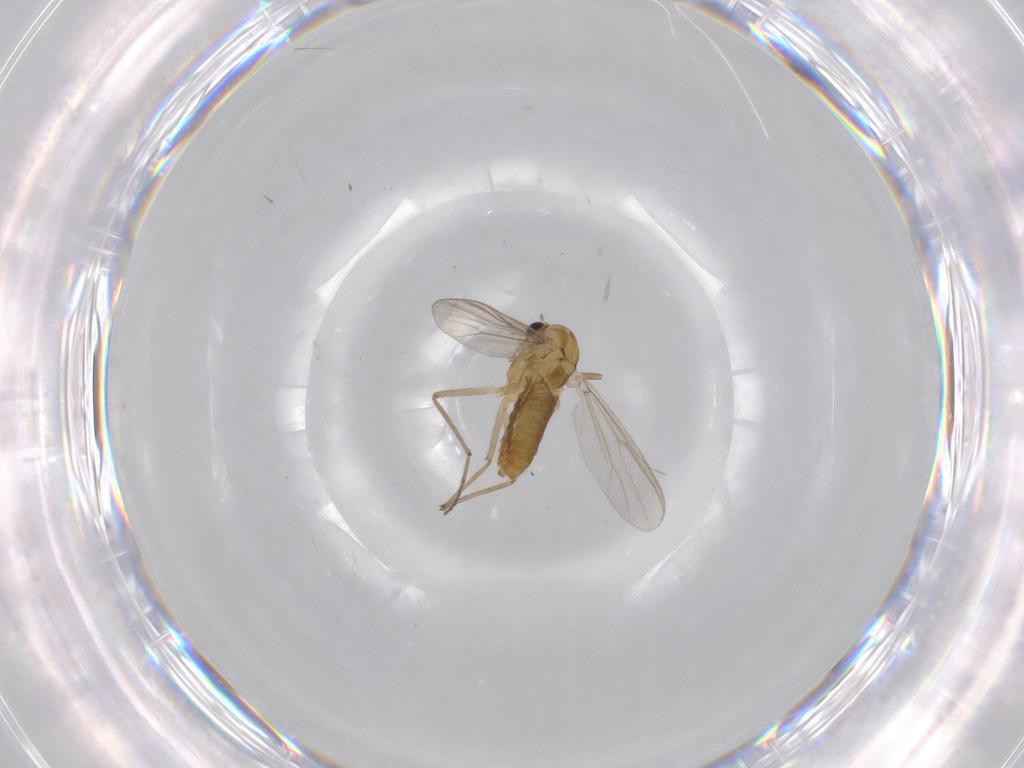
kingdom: Animalia
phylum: Arthropoda
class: Insecta
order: Diptera
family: Chironomidae
